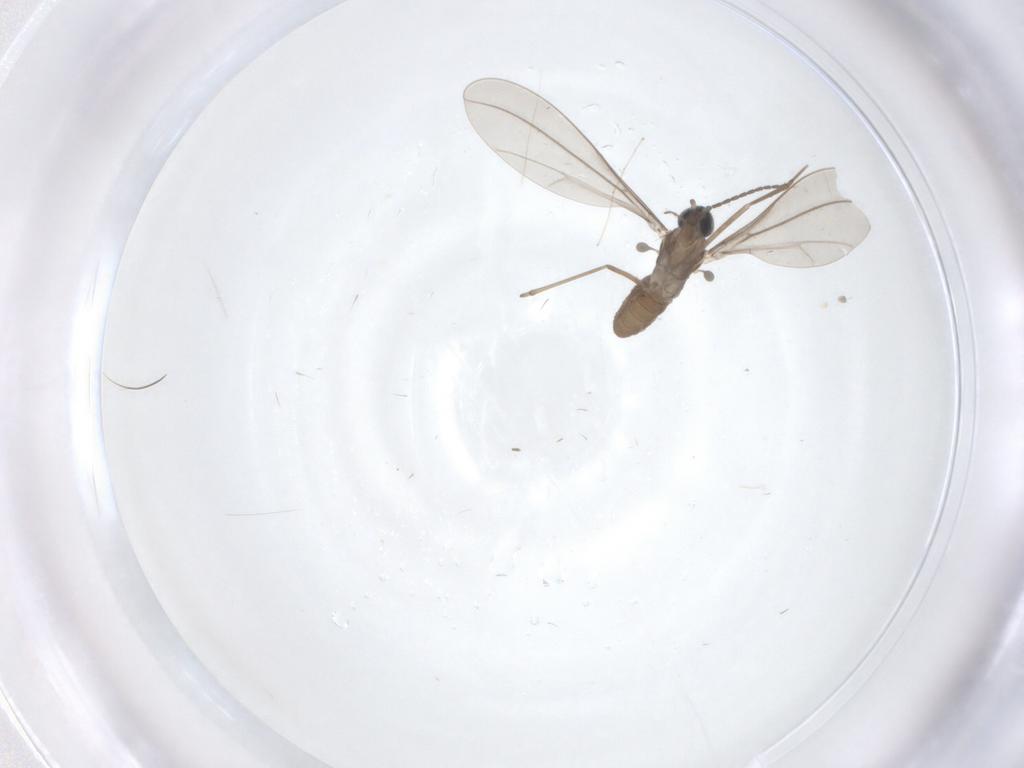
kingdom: Animalia
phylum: Arthropoda
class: Insecta
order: Diptera
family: Mycetophilidae
